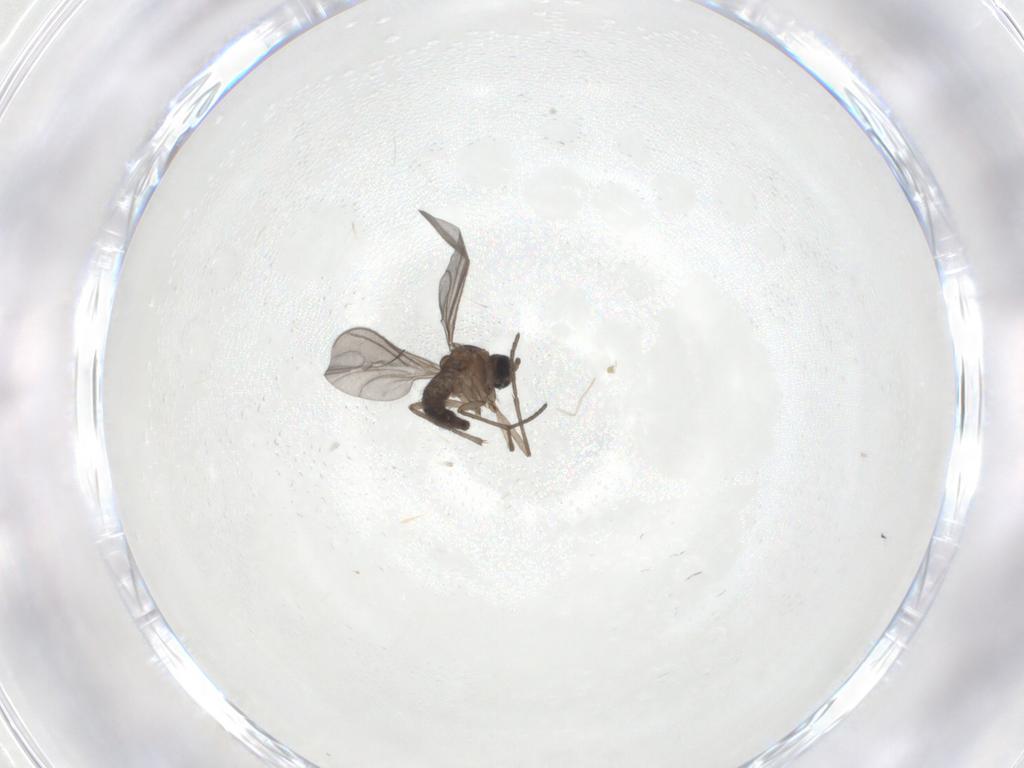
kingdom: Animalia
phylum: Arthropoda
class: Insecta
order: Diptera
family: Cecidomyiidae
